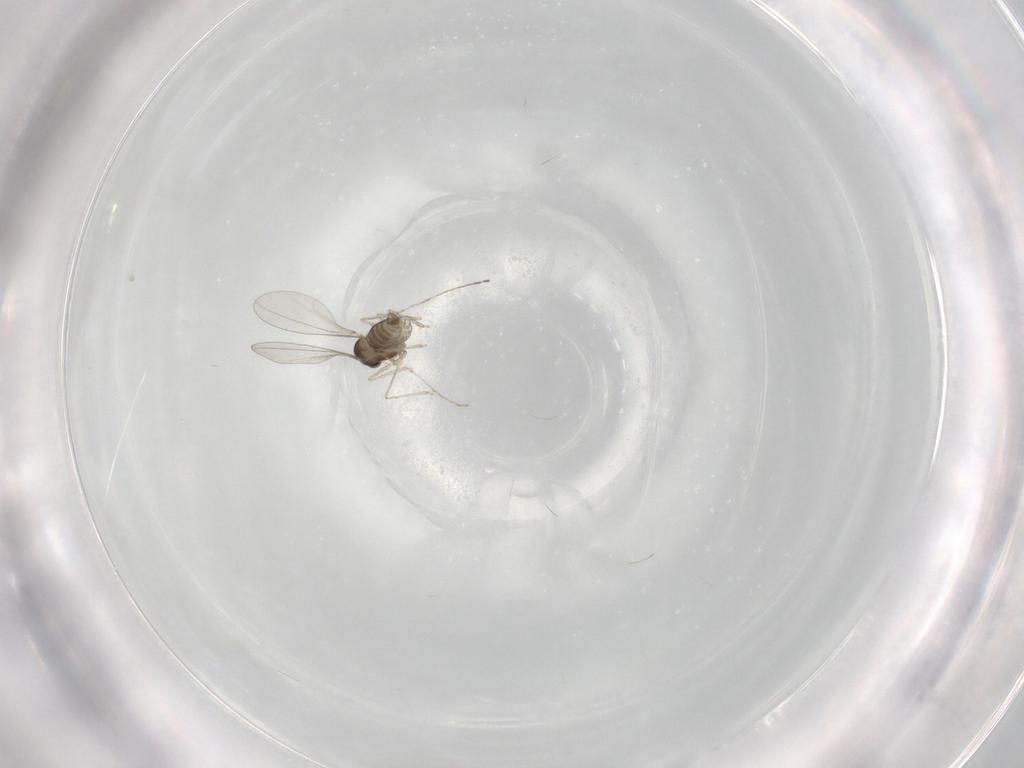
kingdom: Animalia
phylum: Arthropoda
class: Insecta
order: Diptera
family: Cecidomyiidae
